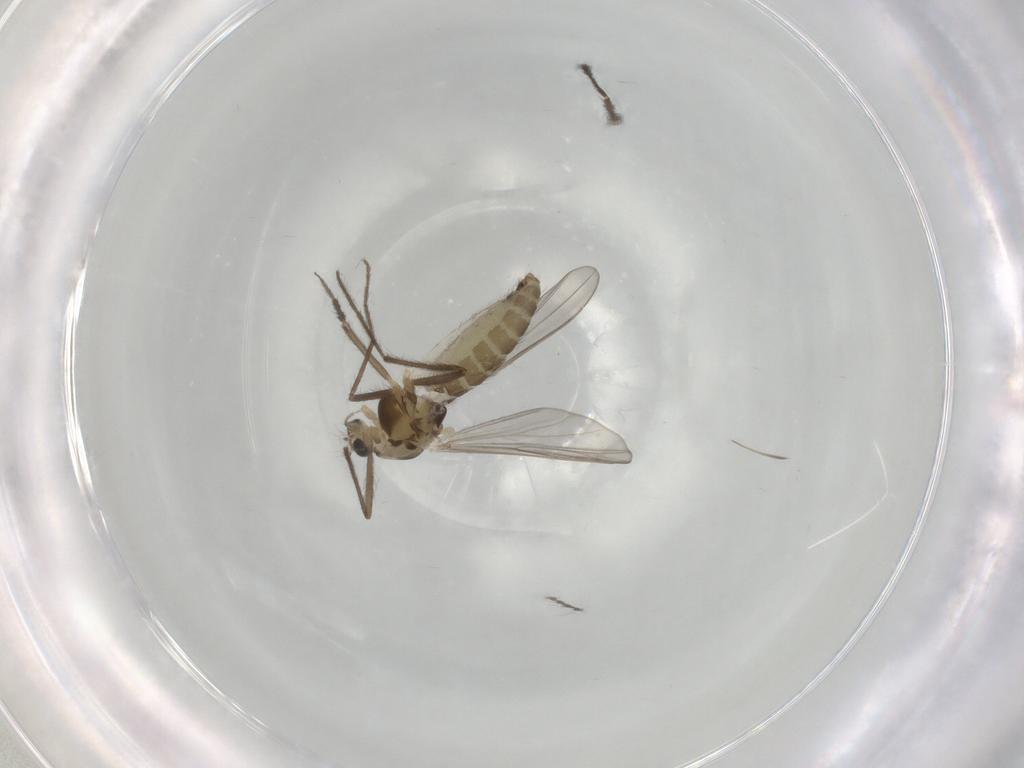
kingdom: Animalia
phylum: Arthropoda
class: Insecta
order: Diptera
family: Chironomidae
